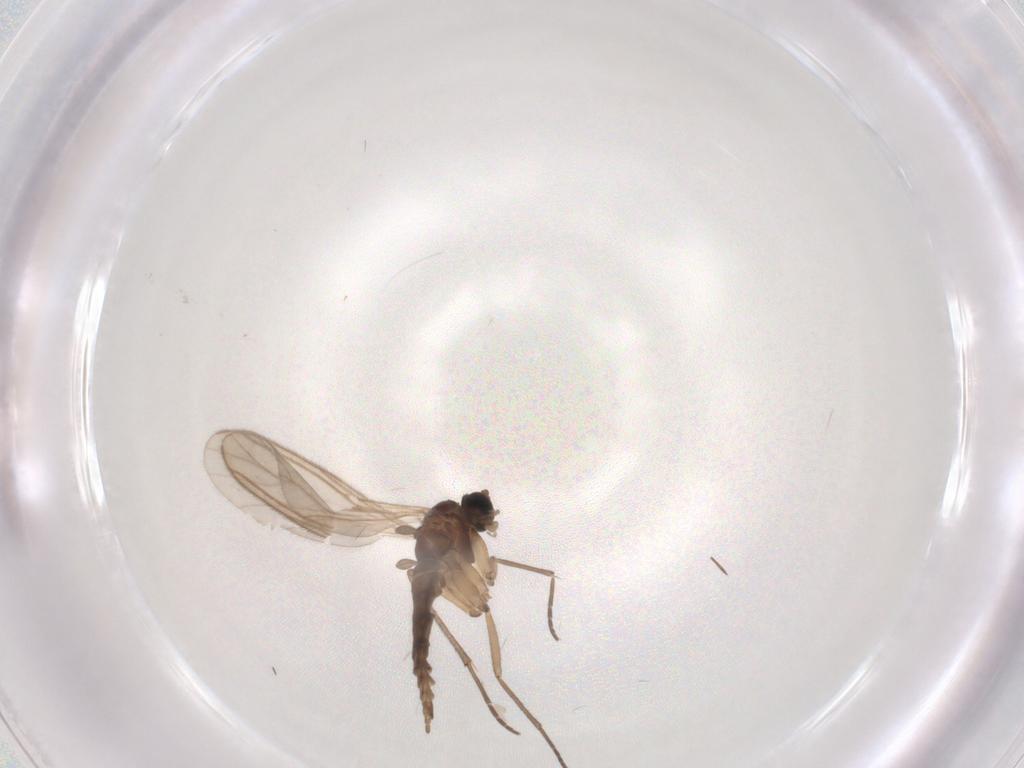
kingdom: Animalia
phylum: Arthropoda
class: Insecta
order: Diptera
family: Sciaridae
